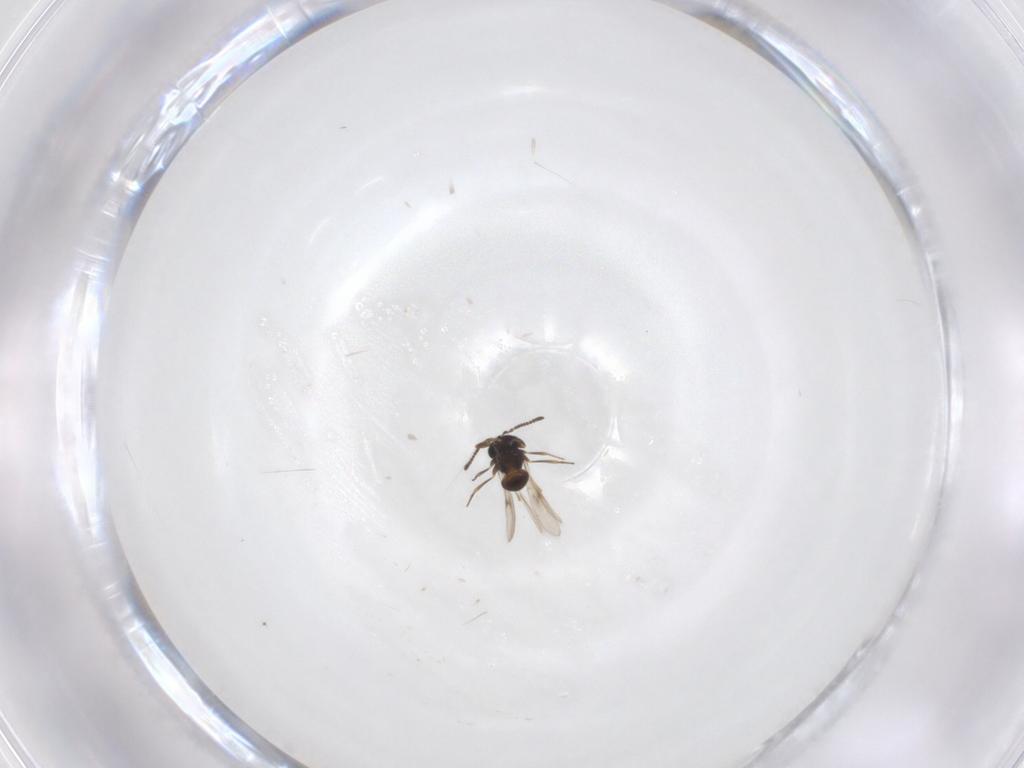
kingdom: Animalia
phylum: Arthropoda
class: Insecta
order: Hymenoptera
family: Scelionidae
